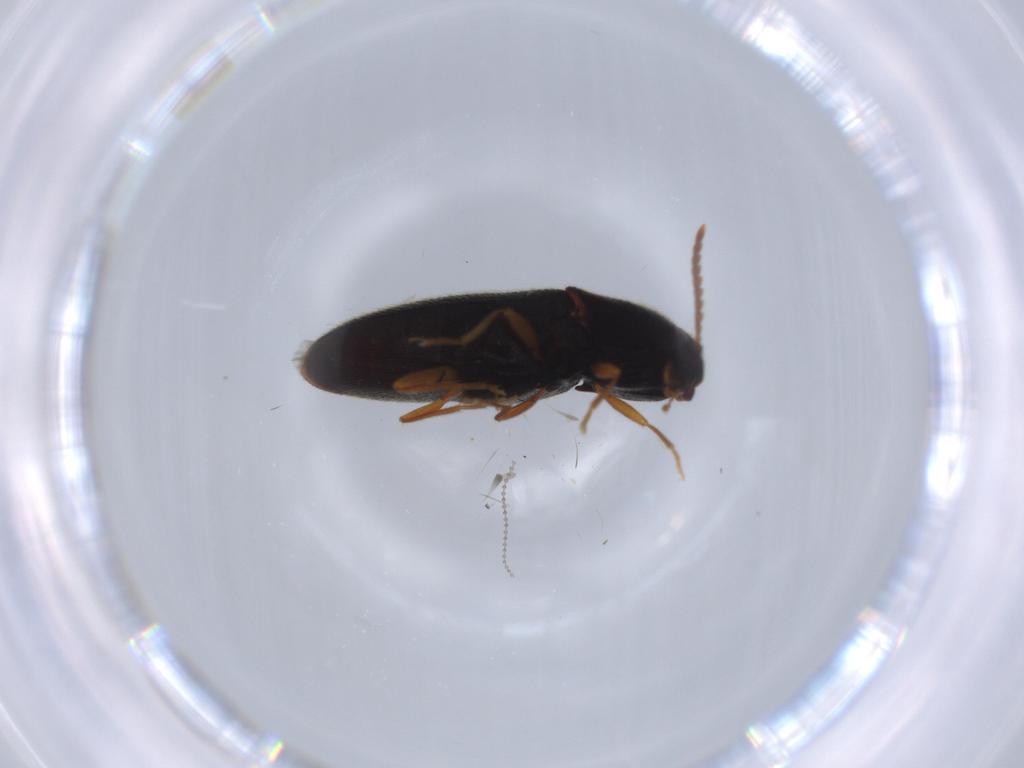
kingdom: Animalia
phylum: Arthropoda
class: Insecta
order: Coleoptera
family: Elateridae
